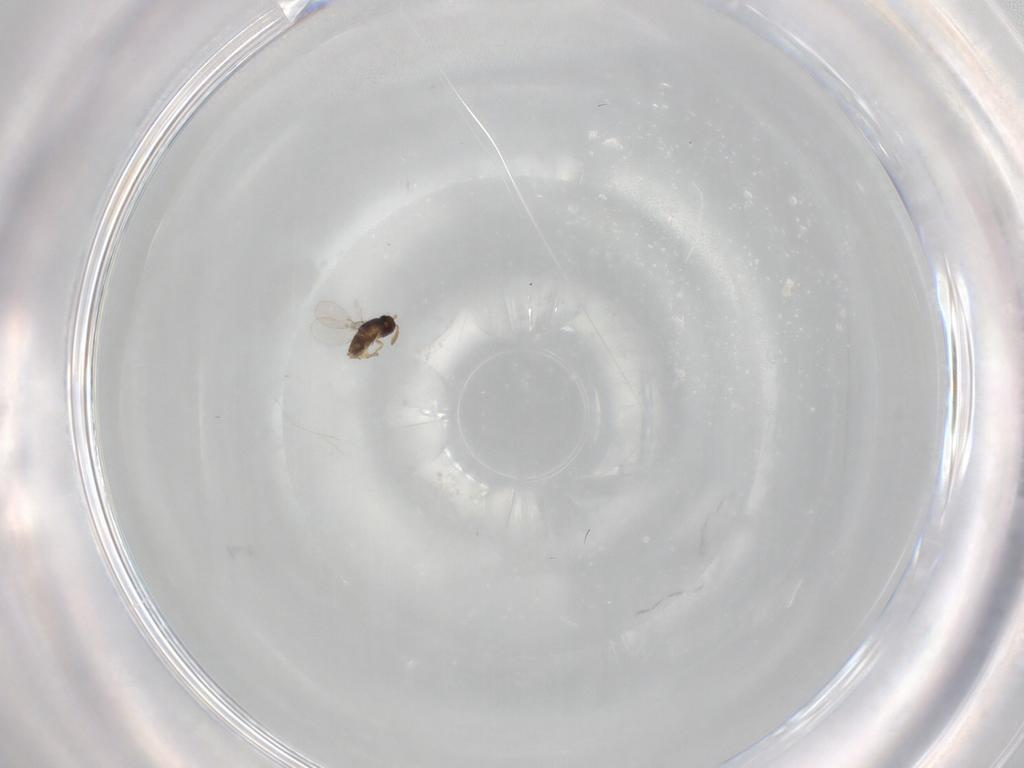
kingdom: Animalia
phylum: Arthropoda
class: Insecta
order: Hymenoptera
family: Encyrtidae
